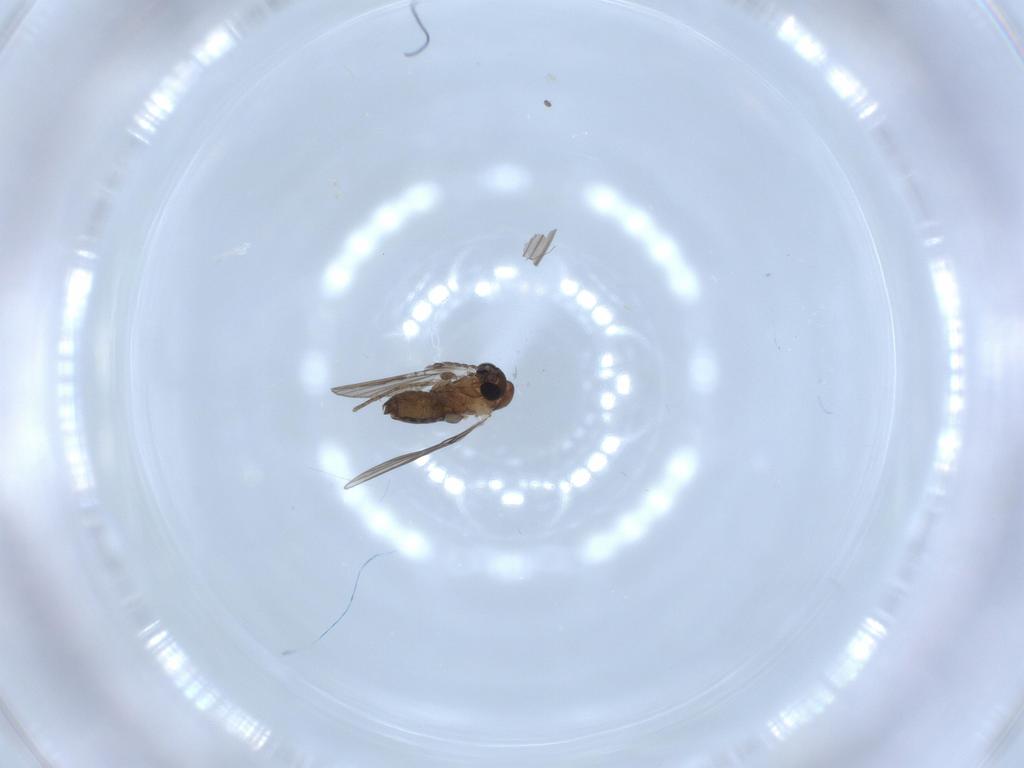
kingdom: Animalia
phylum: Arthropoda
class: Insecta
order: Diptera
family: Psychodidae
